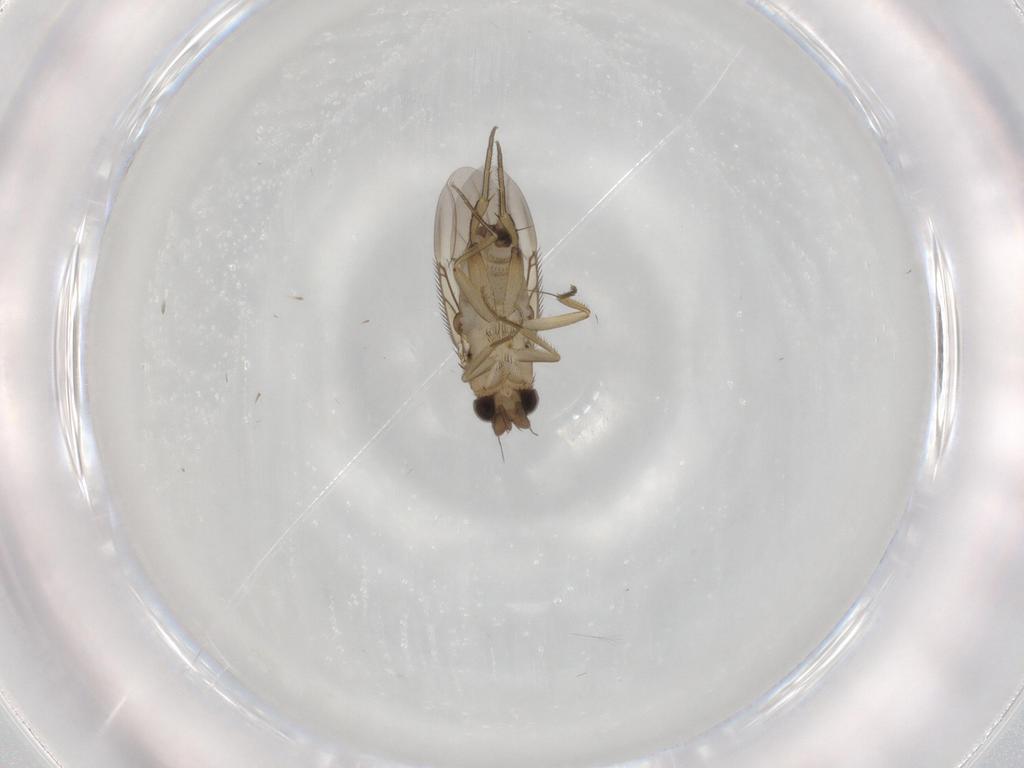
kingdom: Animalia
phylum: Arthropoda
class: Insecta
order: Diptera
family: Phoridae
